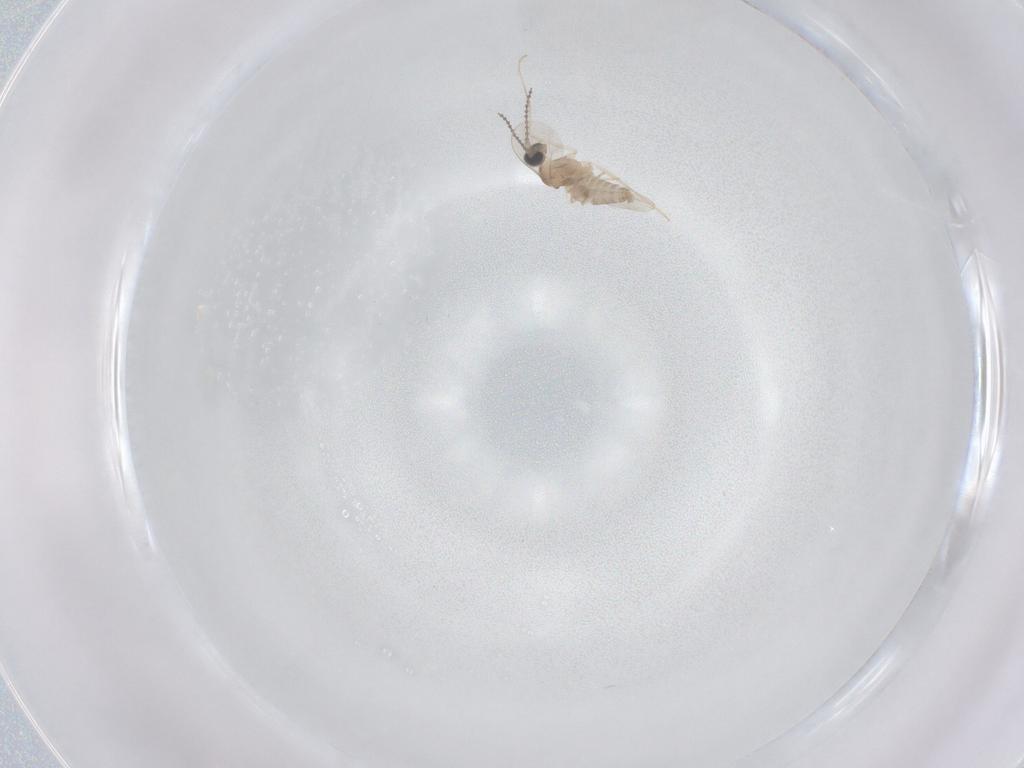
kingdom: Animalia
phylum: Arthropoda
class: Insecta
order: Diptera
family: Cecidomyiidae
